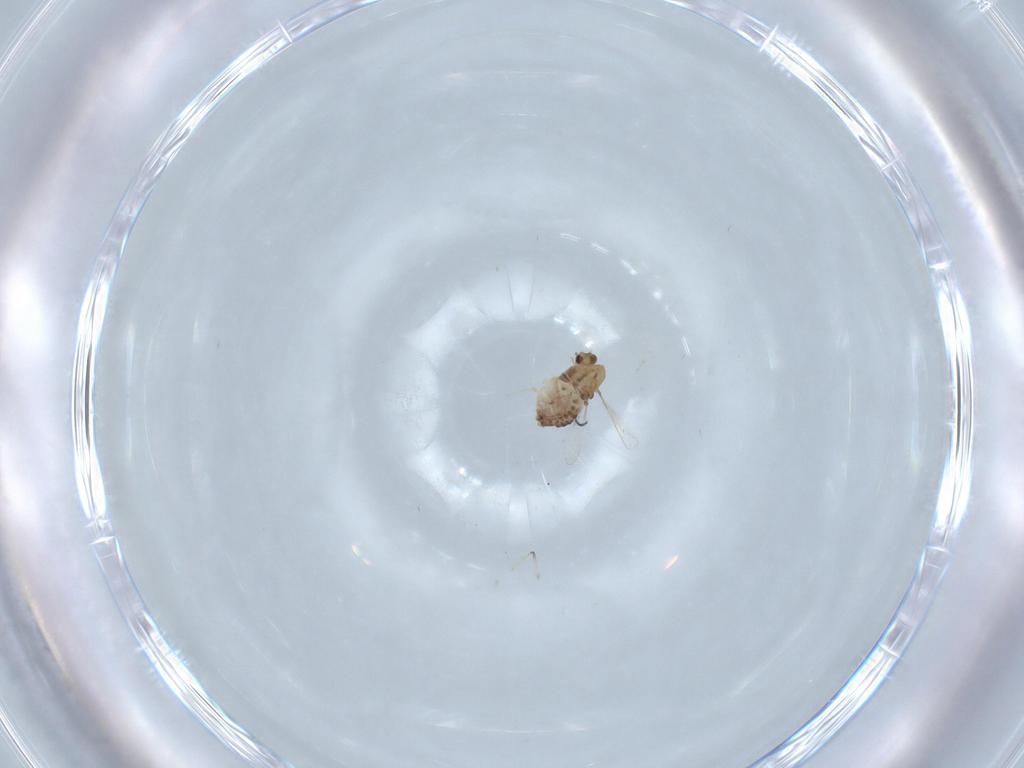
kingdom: Animalia
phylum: Arthropoda
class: Insecta
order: Diptera
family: Chironomidae
